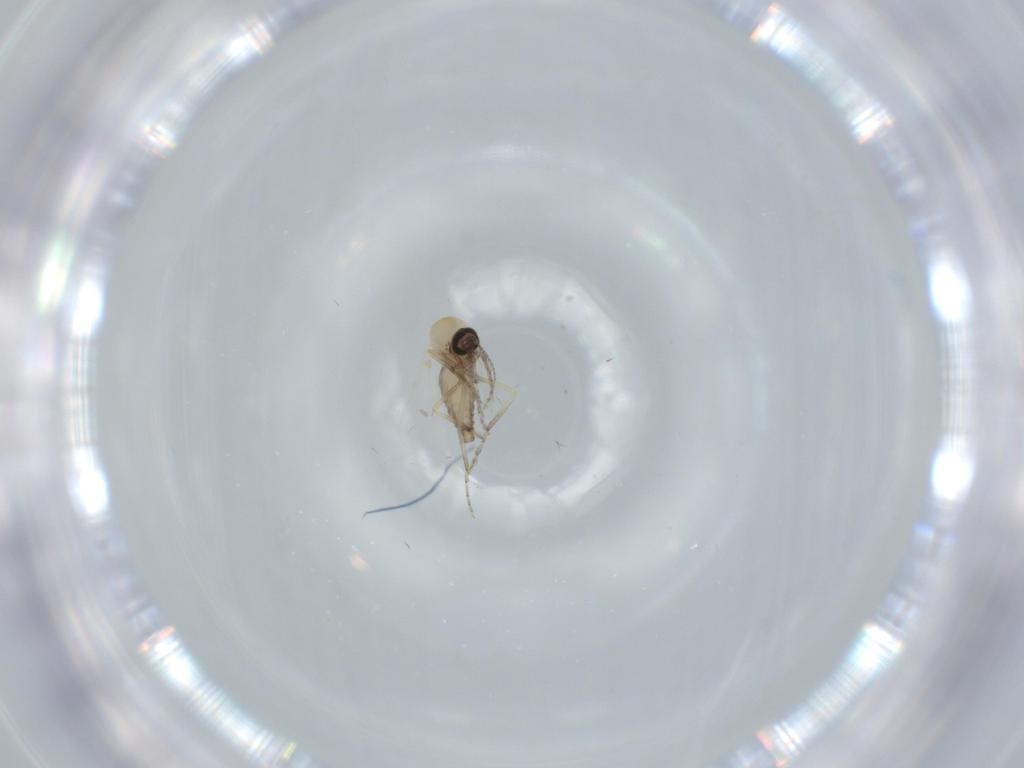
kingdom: Animalia
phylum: Arthropoda
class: Insecta
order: Diptera
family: Ceratopogonidae
